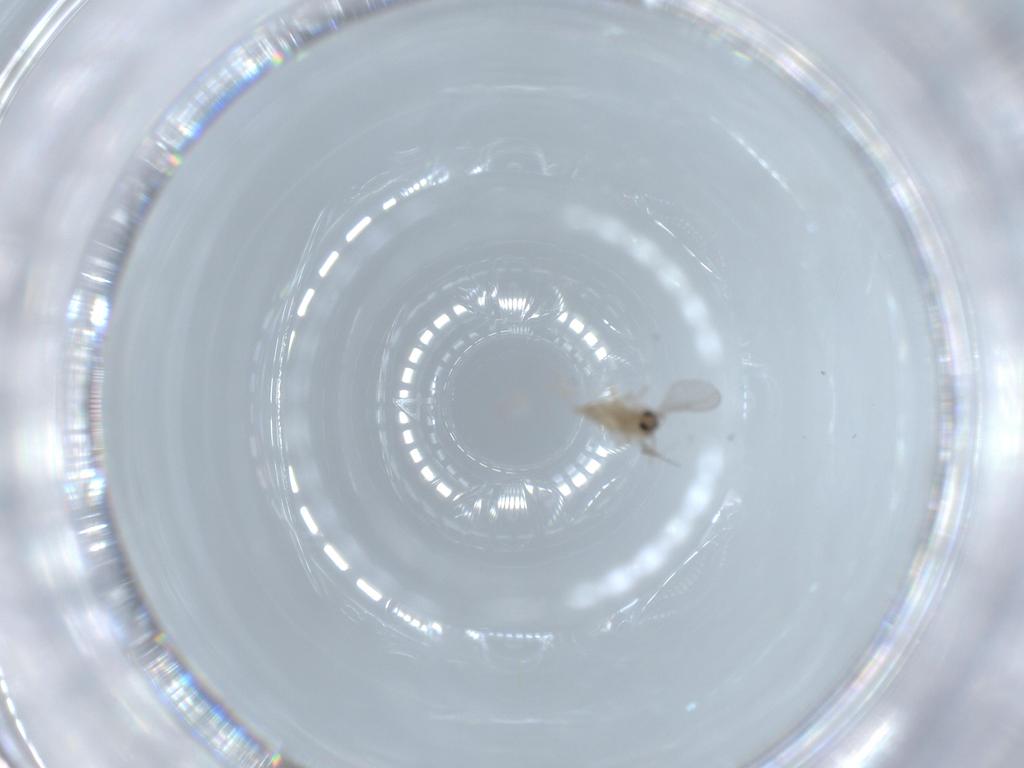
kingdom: Animalia
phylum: Arthropoda
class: Insecta
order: Diptera
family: Cecidomyiidae
